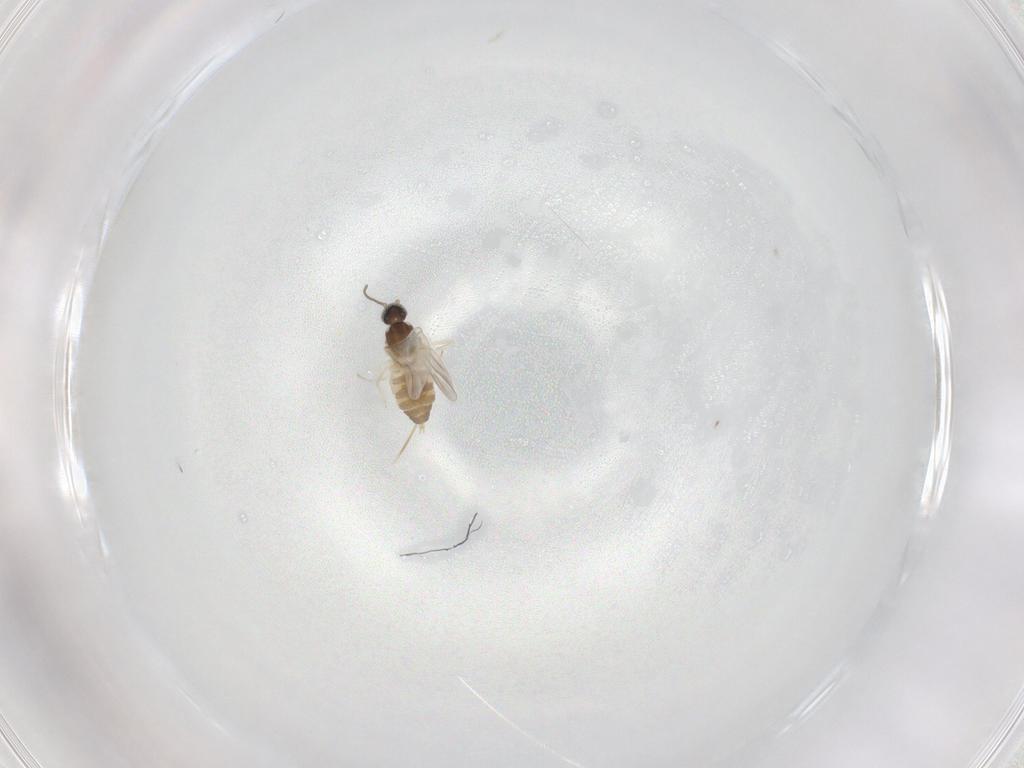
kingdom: Animalia
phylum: Arthropoda
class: Insecta
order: Diptera
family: Cecidomyiidae
